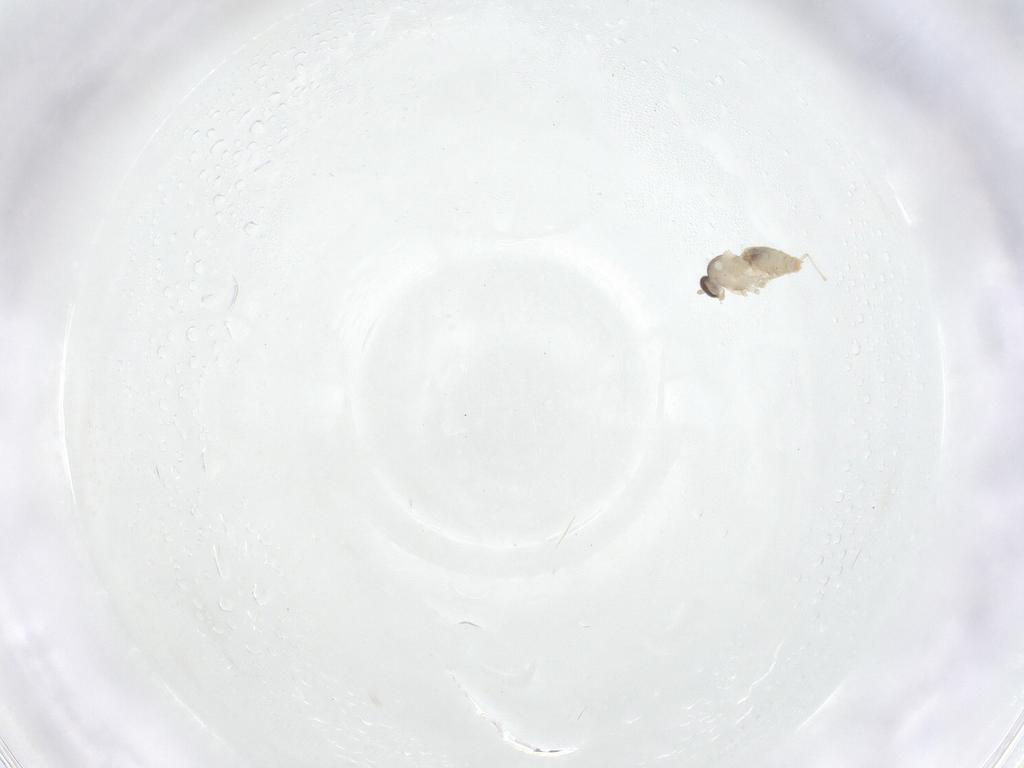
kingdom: Animalia
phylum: Arthropoda
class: Insecta
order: Diptera
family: Cecidomyiidae
